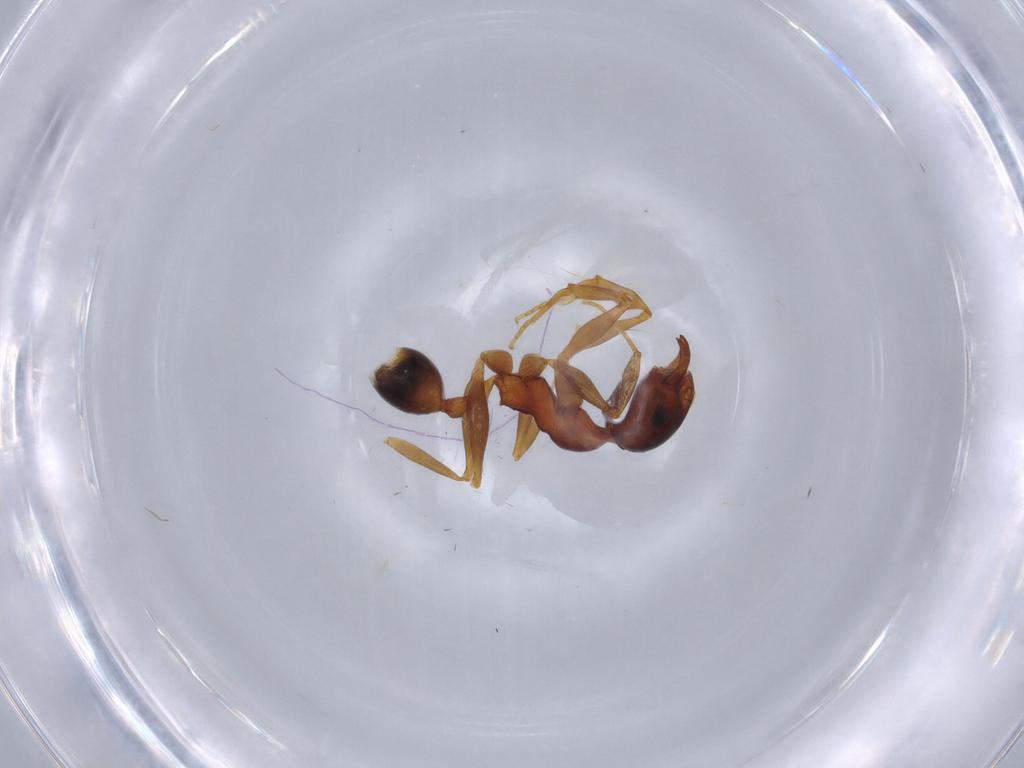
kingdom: Animalia
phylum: Arthropoda
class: Insecta
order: Hymenoptera
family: Formicidae
